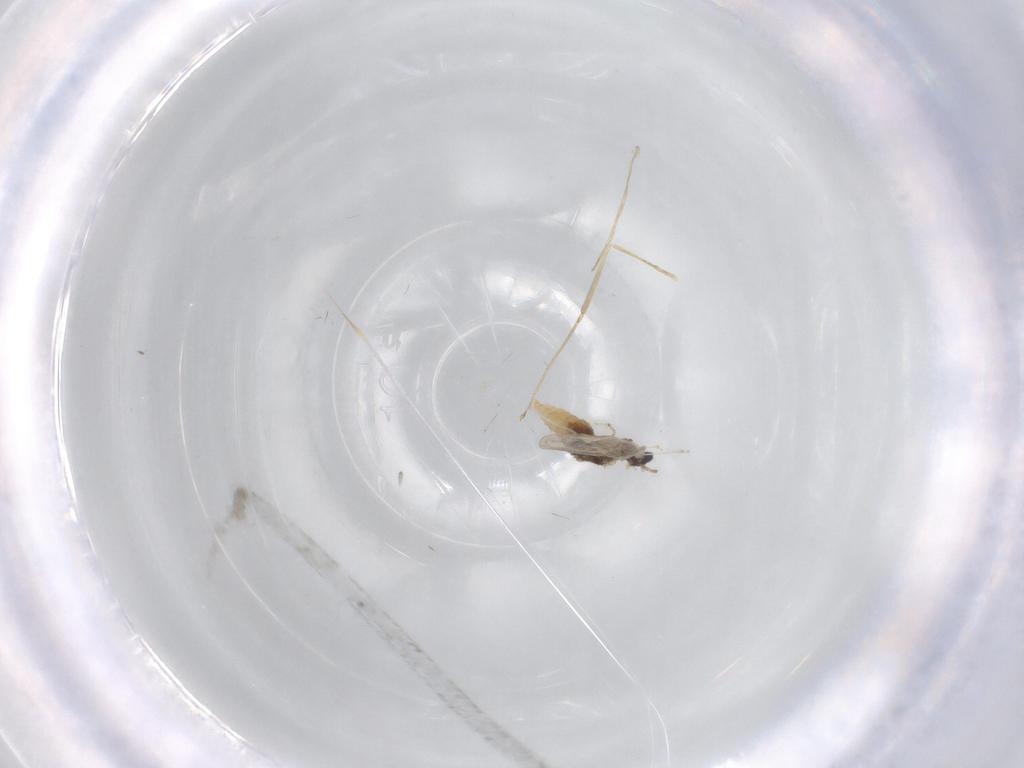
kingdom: Animalia
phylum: Arthropoda
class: Insecta
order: Diptera
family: Cecidomyiidae
